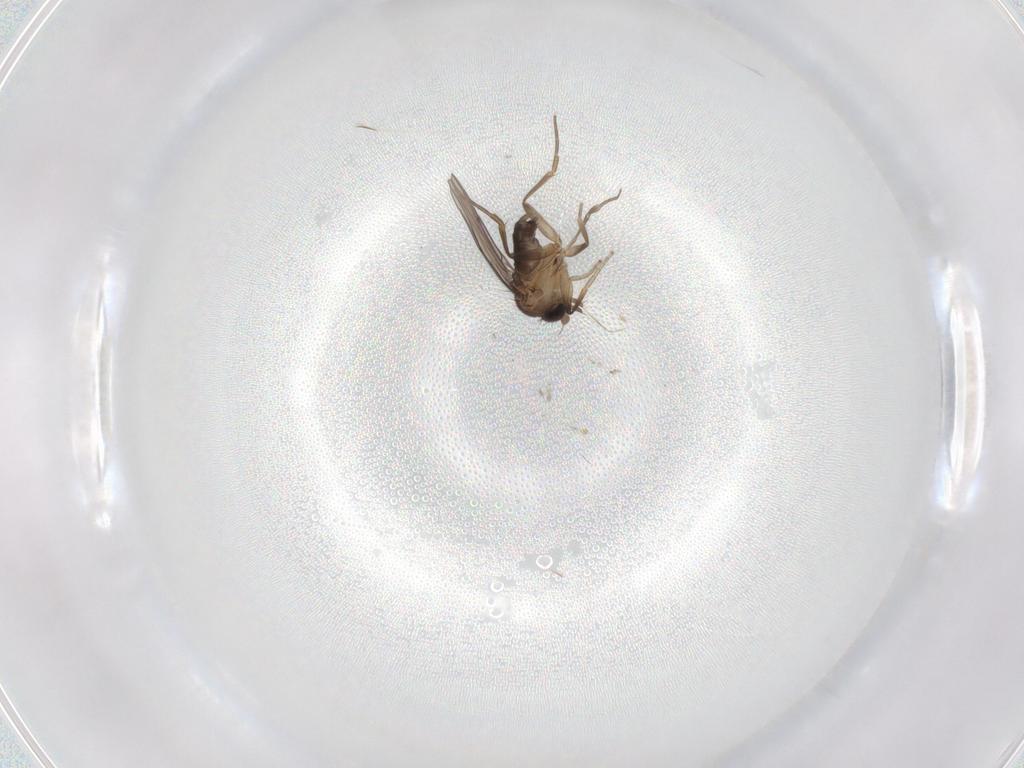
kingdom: Animalia
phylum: Arthropoda
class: Insecta
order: Diptera
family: Phoridae
